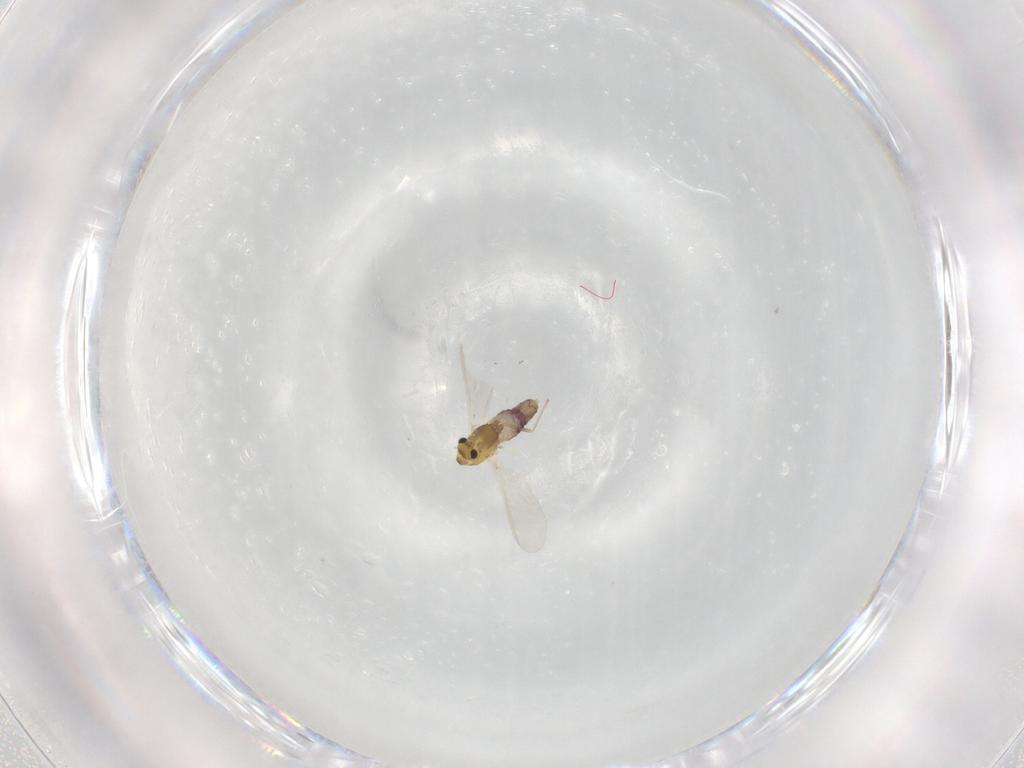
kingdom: Animalia
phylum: Arthropoda
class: Insecta
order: Diptera
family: Chironomidae
